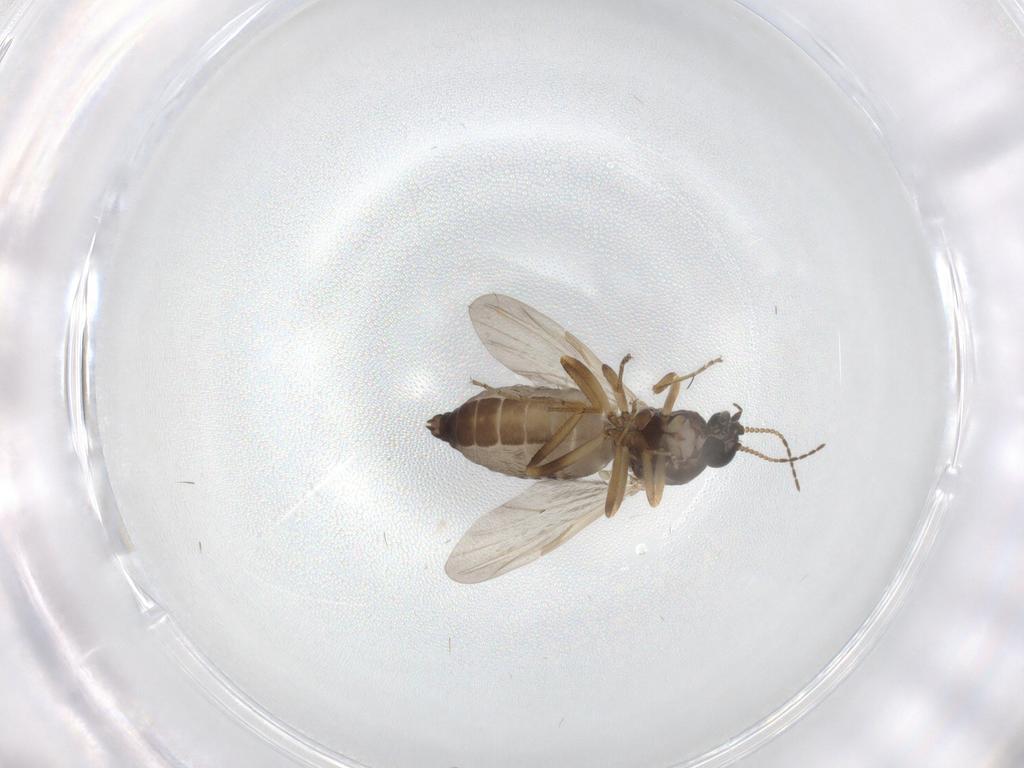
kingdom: Animalia
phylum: Arthropoda
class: Insecta
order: Diptera
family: Ceratopogonidae
